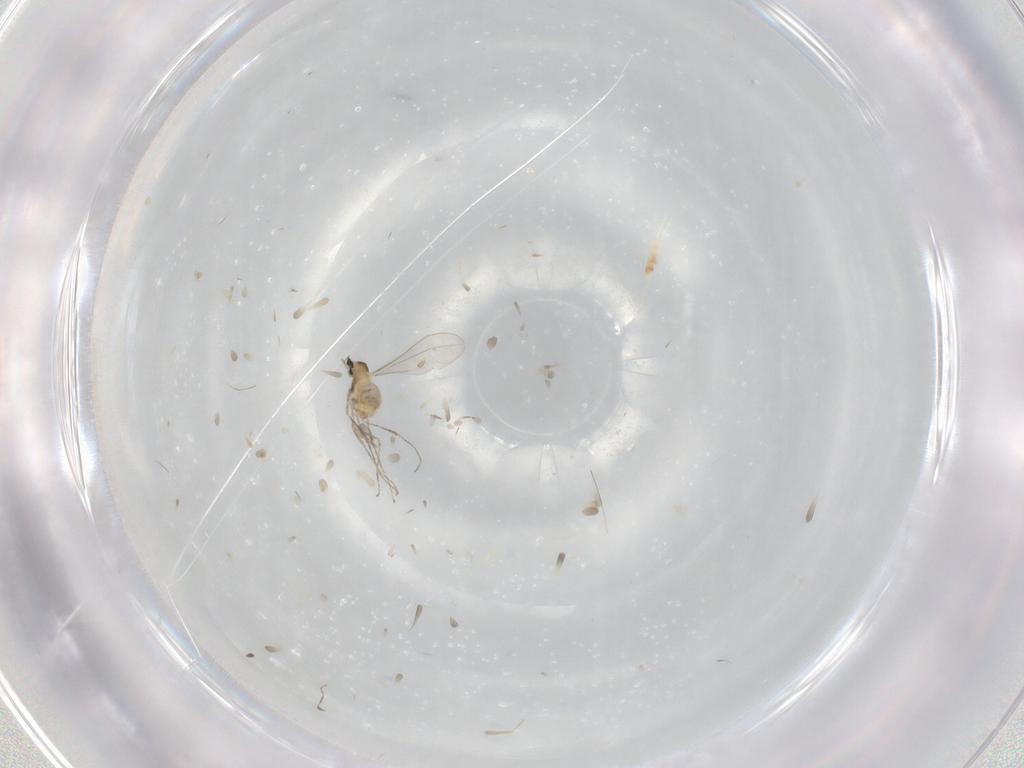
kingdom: Animalia
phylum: Arthropoda
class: Insecta
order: Diptera
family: Cecidomyiidae
